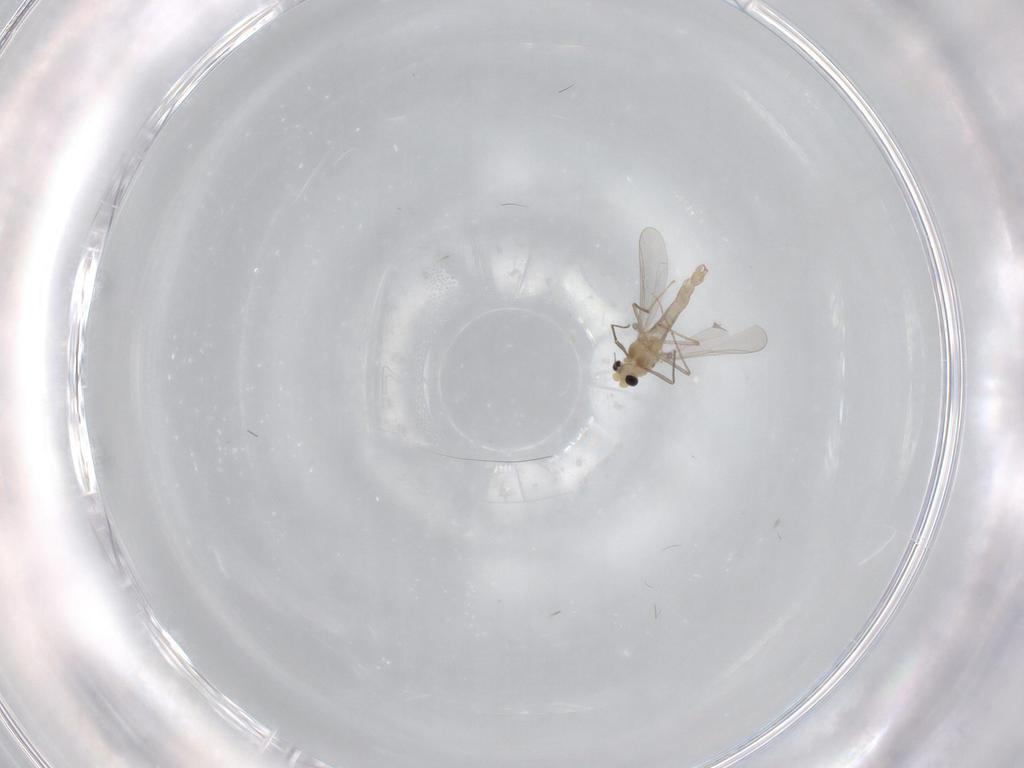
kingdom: Animalia
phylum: Arthropoda
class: Insecta
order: Diptera
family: Chironomidae
